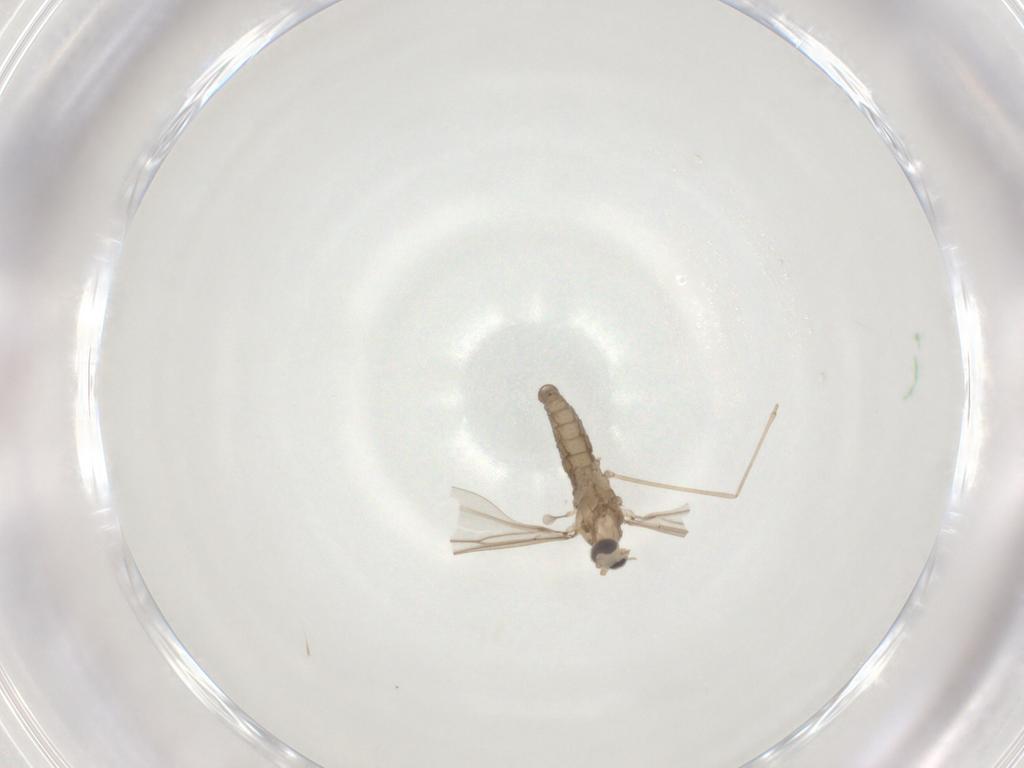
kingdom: Animalia
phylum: Arthropoda
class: Insecta
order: Diptera
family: Cecidomyiidae
